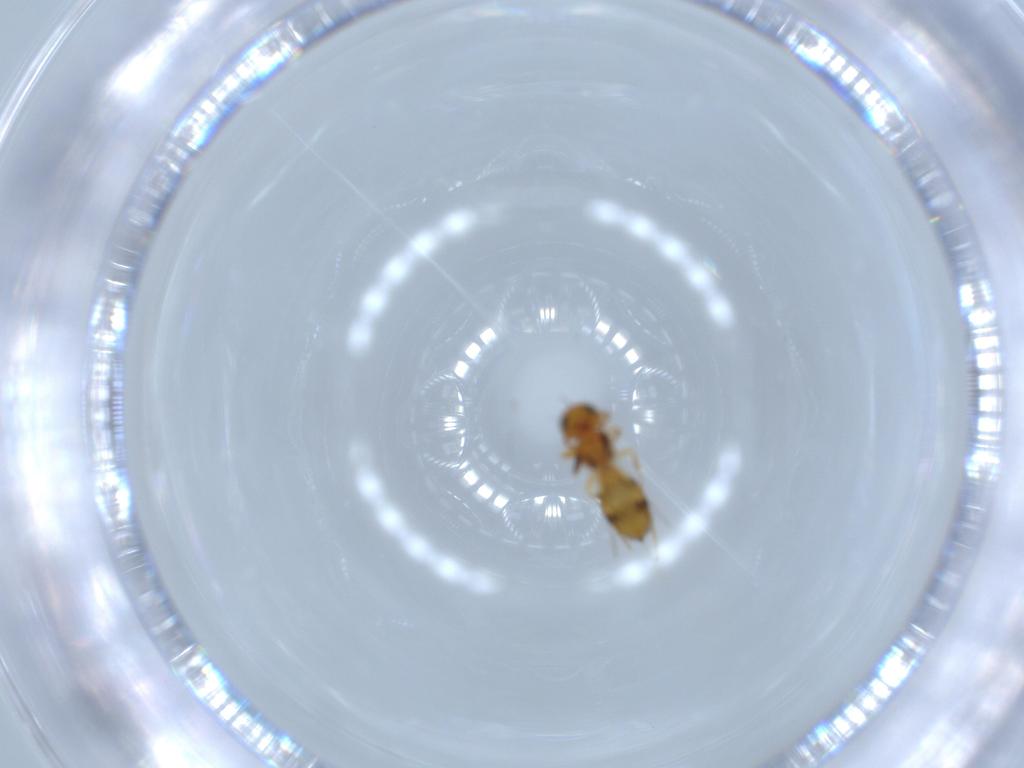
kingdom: Animalia
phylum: Arthropoda
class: Insecta
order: Hymenoptera
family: Scelionidae
